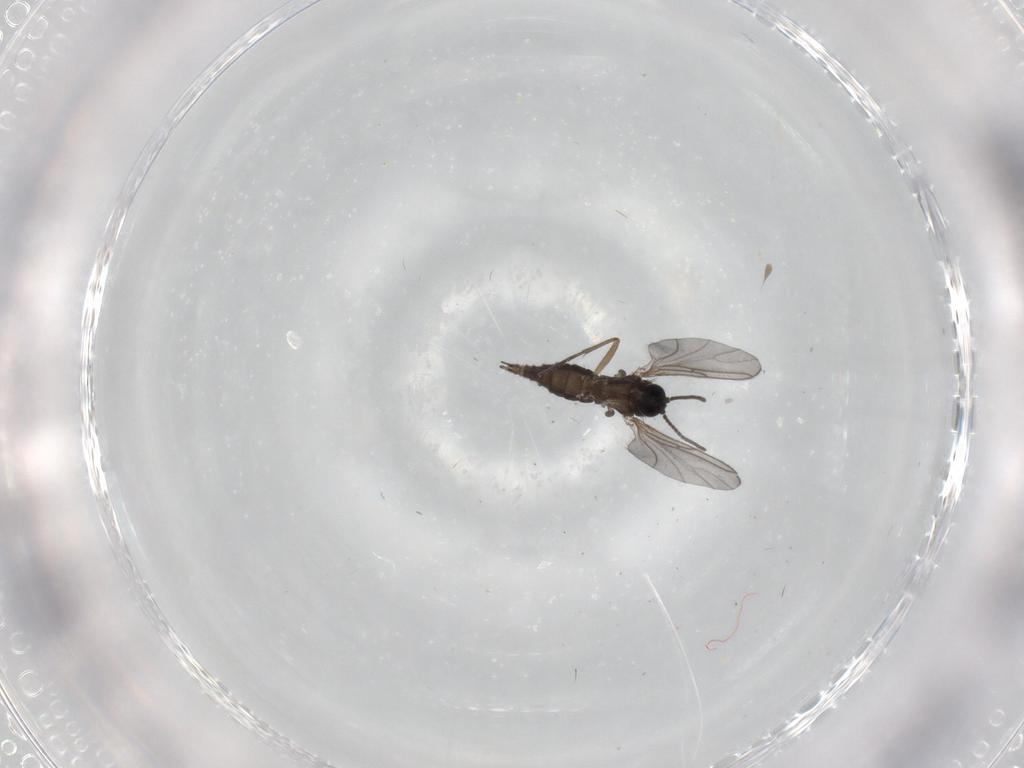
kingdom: Animalia
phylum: Arthropoda
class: Insecta
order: Diptera
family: Sciaridae
